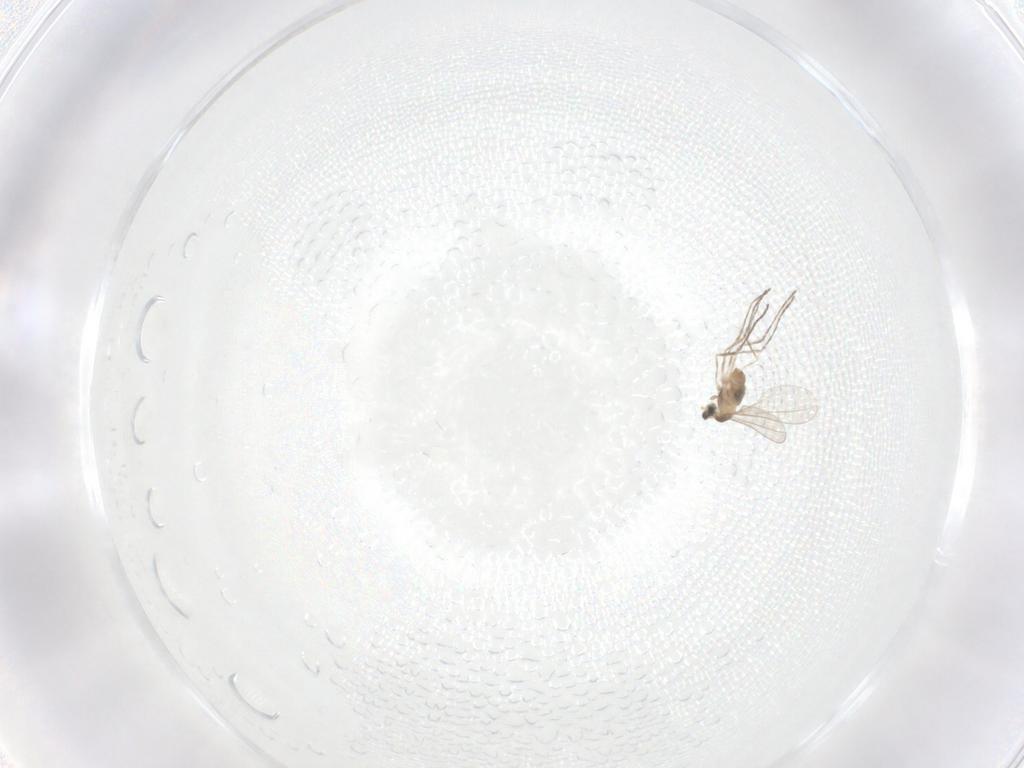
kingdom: Animalia
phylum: Arthropoda
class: Insecta
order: Diptera
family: Cecidomyiidae
